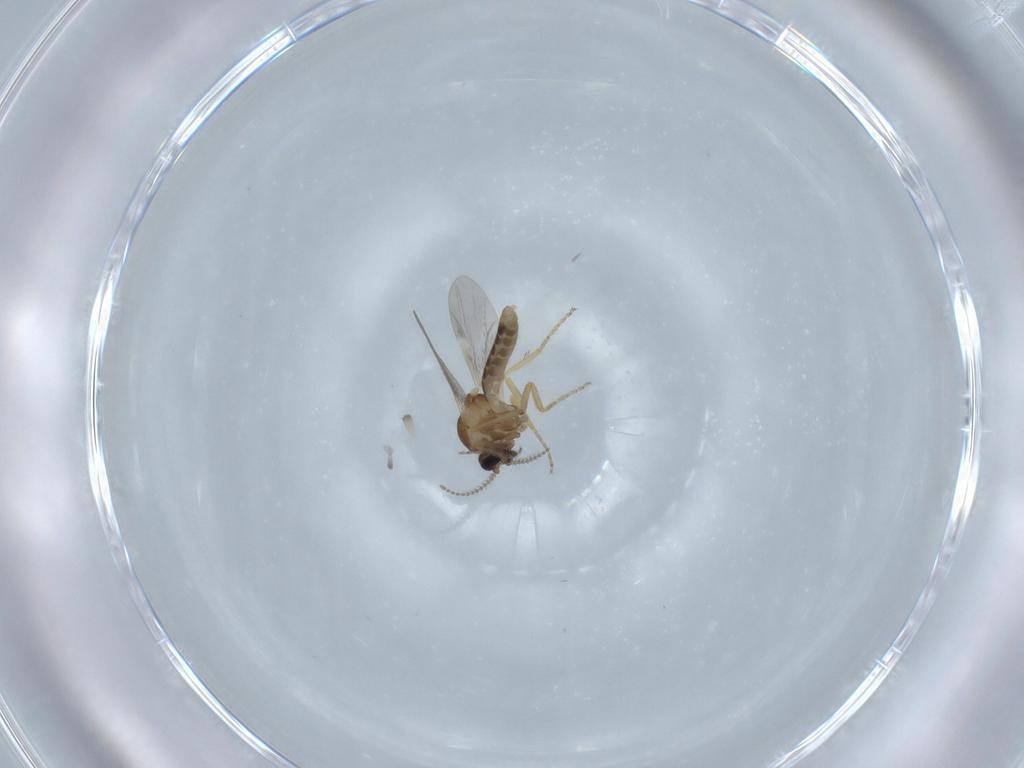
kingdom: Animalia
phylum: Arthropoda
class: Insecta
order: Diptera
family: Ceratopogonidae
